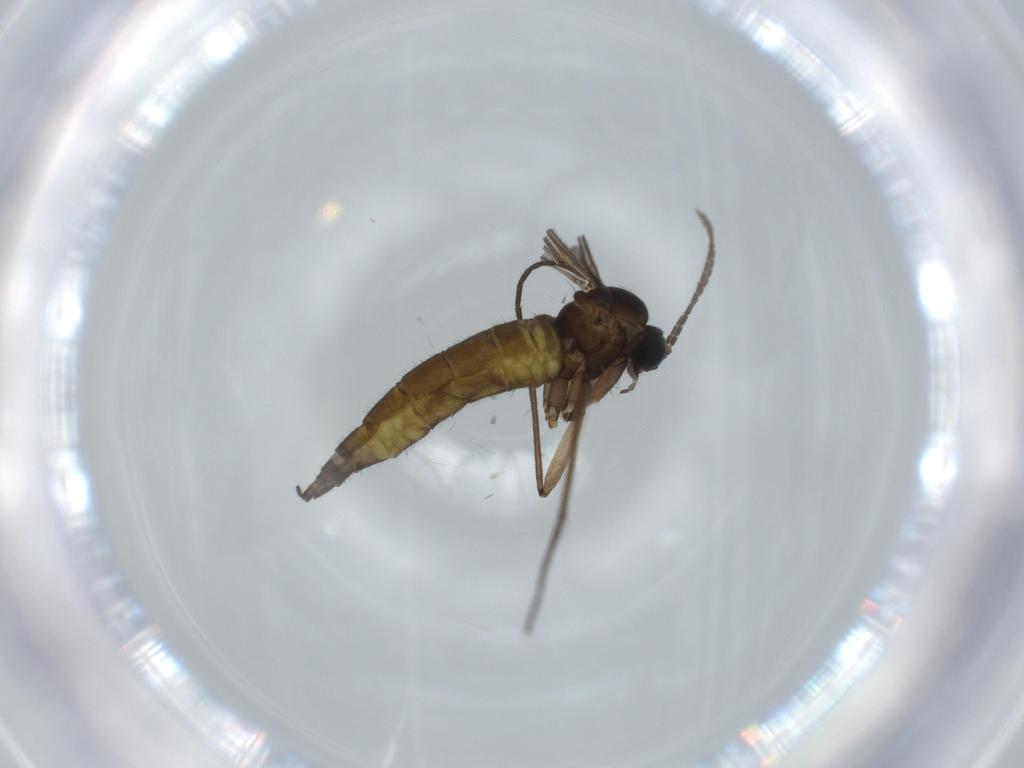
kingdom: Animalia
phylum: Arthropoda
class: Insecta
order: Diptera
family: Sciaridae
